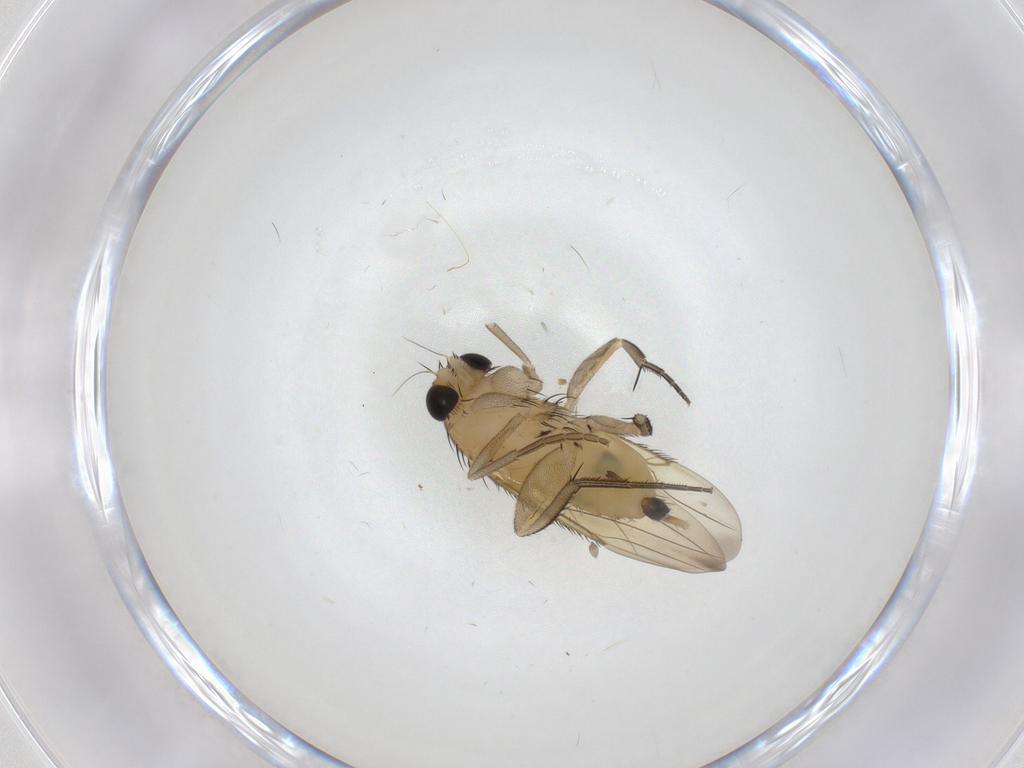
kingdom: Animalia
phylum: Arthropoda
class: Insecta
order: Diptera
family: Phoridae
